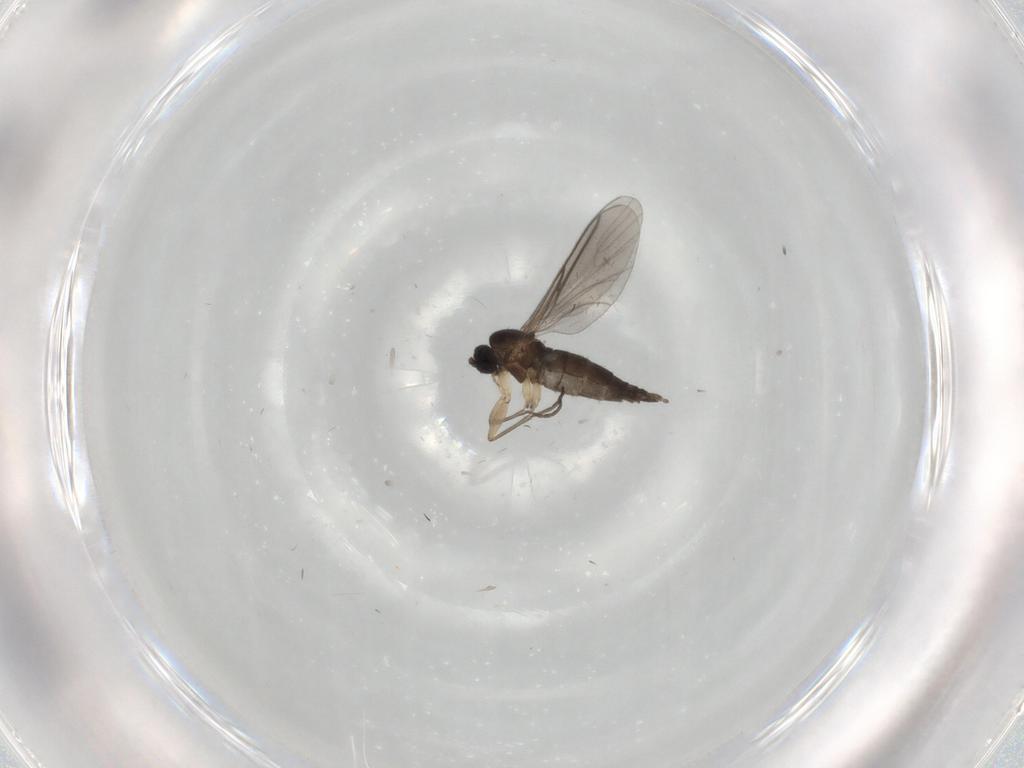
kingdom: Animalia
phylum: Arthropoda
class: Insecta
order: Diptera
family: Sciaridae
